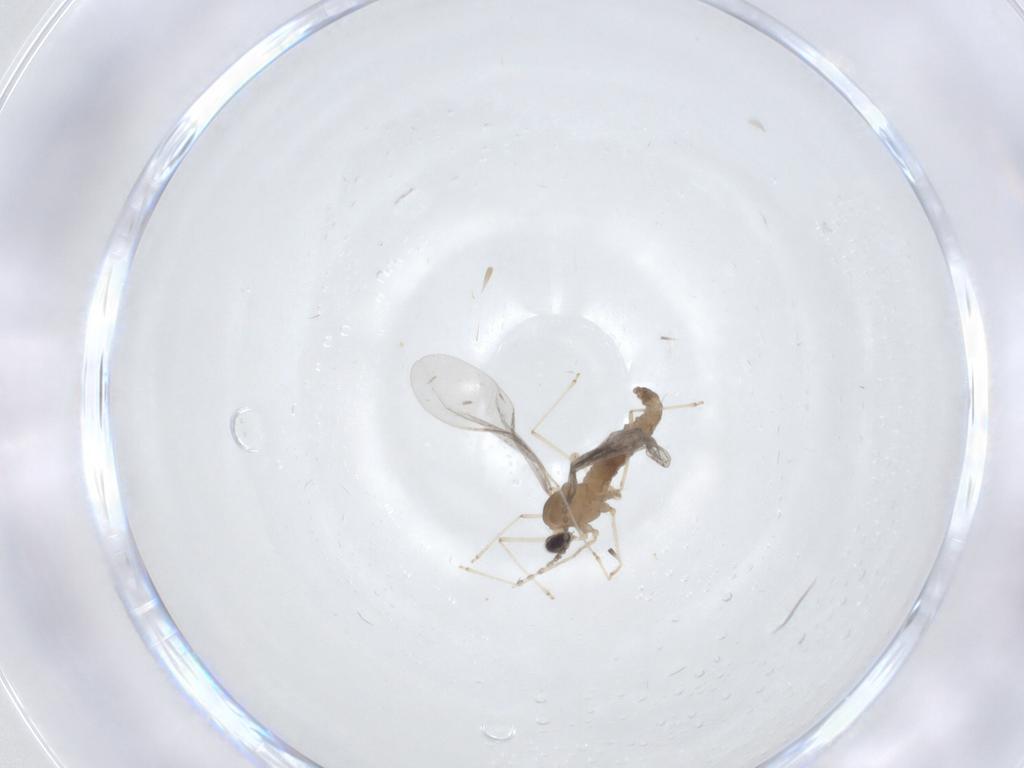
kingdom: Animalia
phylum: Arthropoda
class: Insecta
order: Diptera
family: Cecidomyiidae
